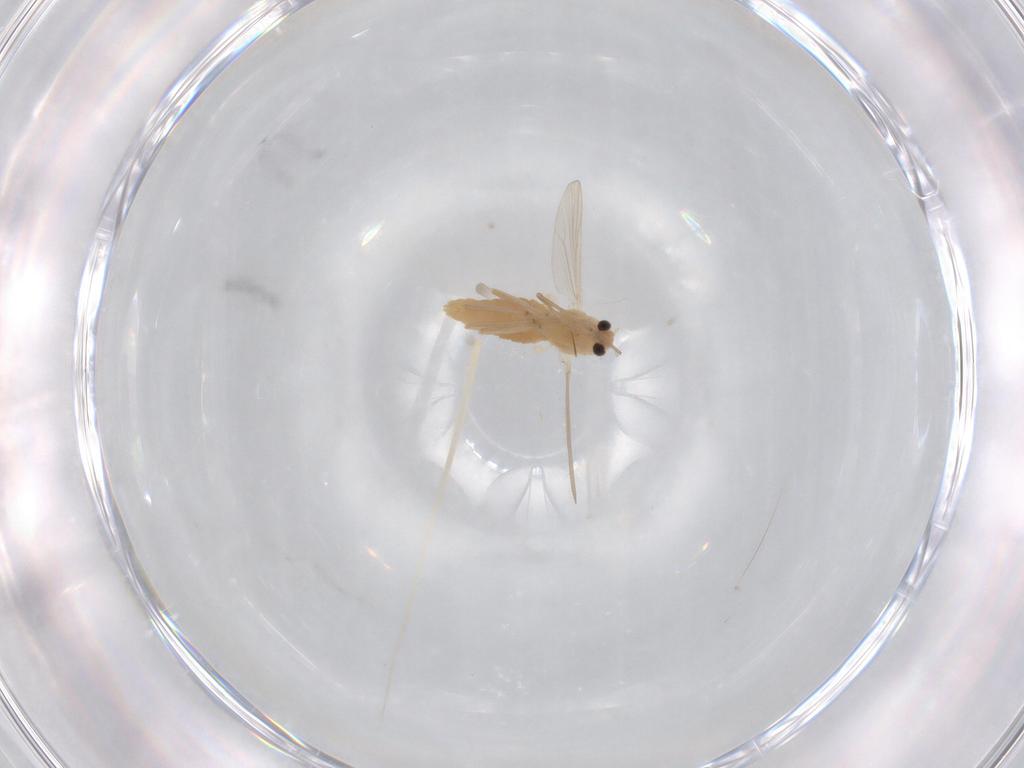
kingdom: Animalia
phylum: Arthropoda
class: Insecta
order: Diptera
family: Chironomidae
